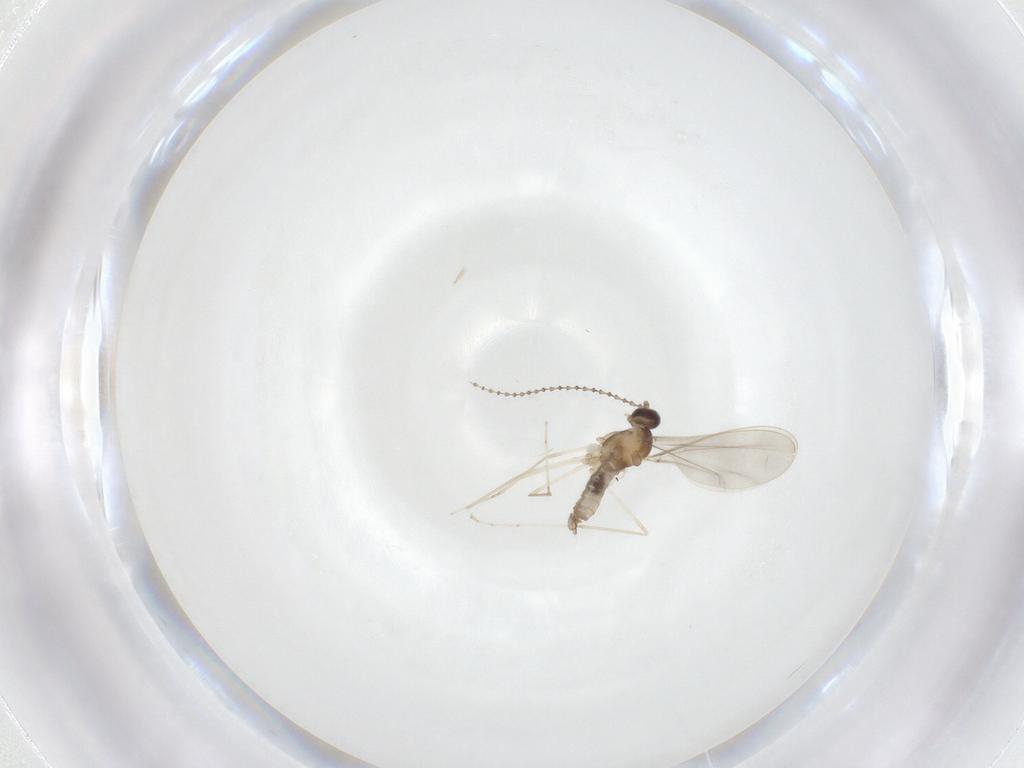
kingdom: Animalia
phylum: Arthropoda
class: Insecta
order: Diptera
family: Cecidomyiidae
